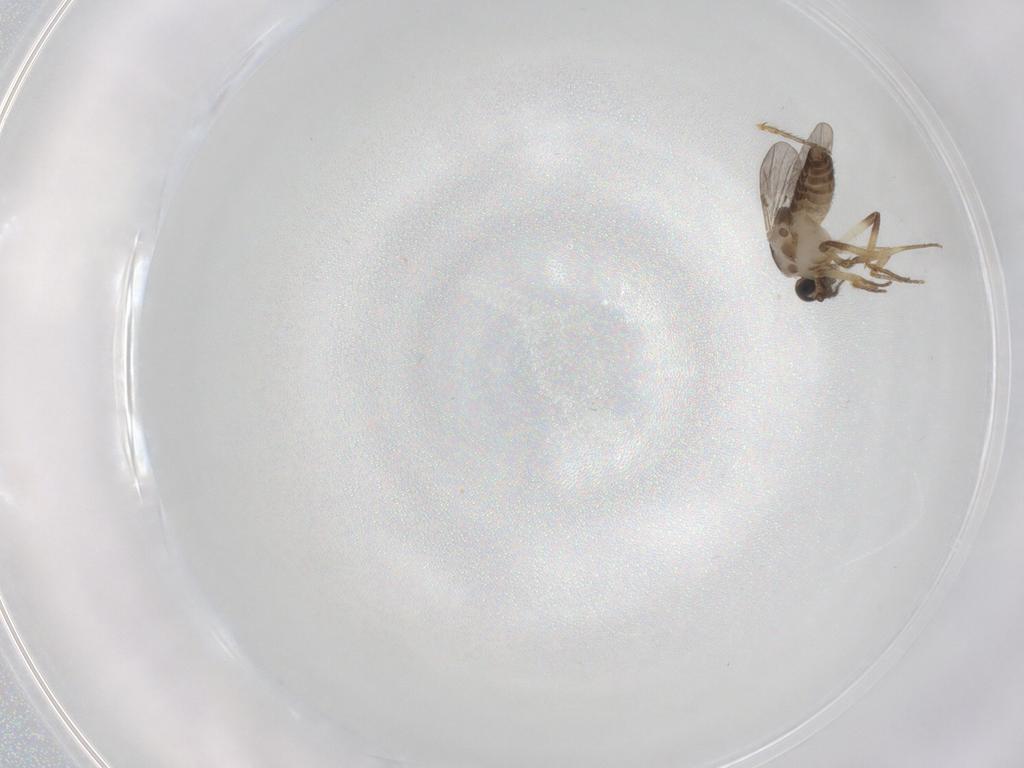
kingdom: Animalia
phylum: Arthropoda
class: Insecta
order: Diptera
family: Ceratopogonidae
